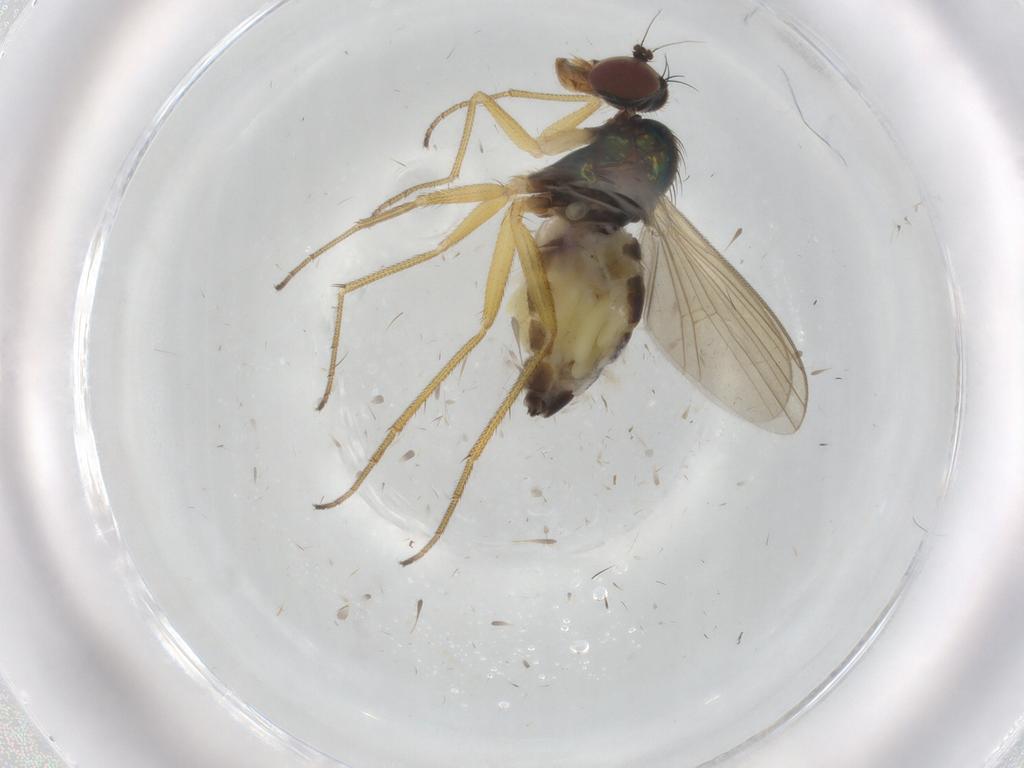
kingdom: Animalia
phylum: Arthropoda
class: Insecta
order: Diptera
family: Dolichopodidae
